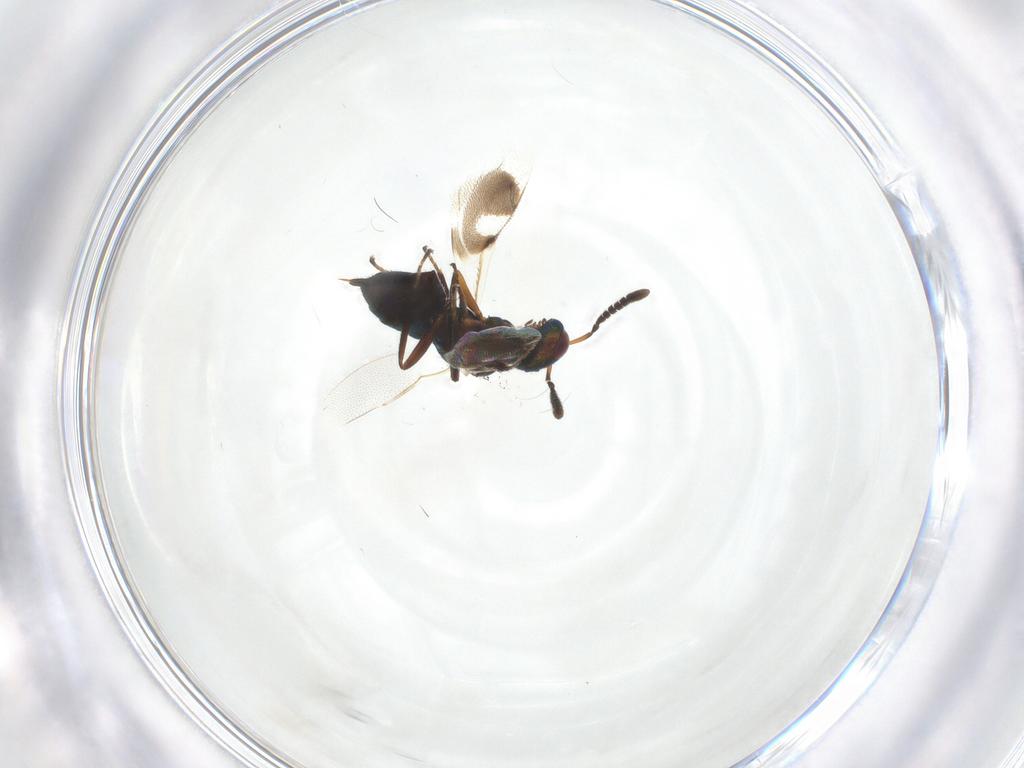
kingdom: Animalia
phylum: Arthropoda
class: Insecta
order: Hymenoptera
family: Pteromalidae
